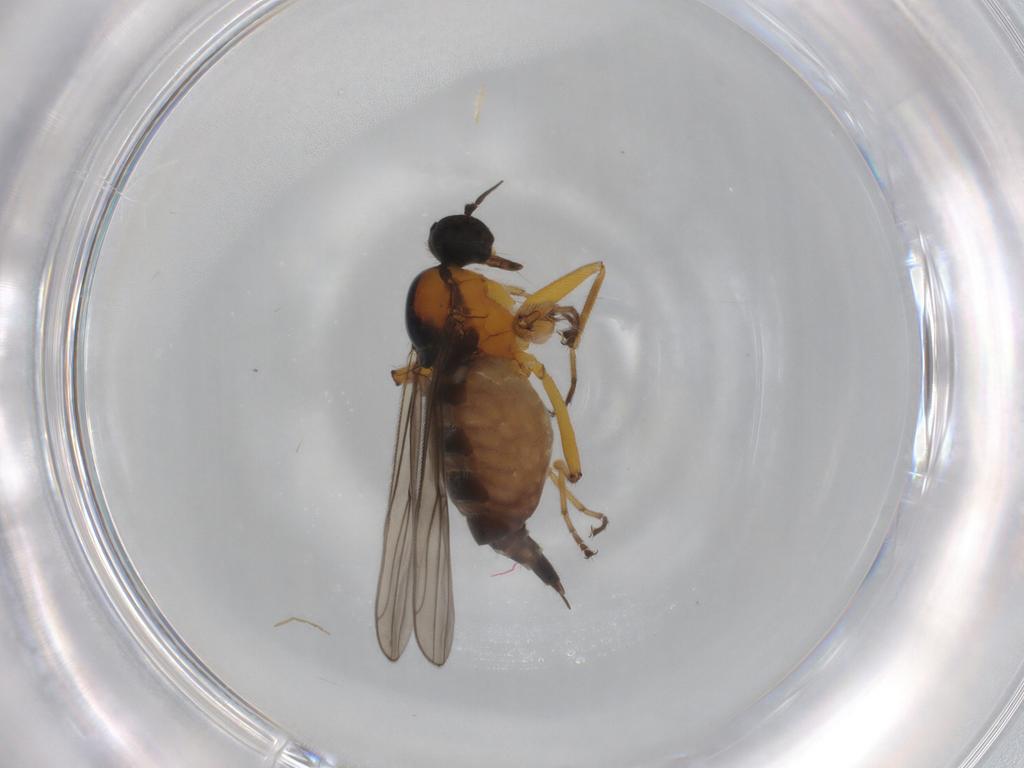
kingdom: Animalia
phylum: Arthropoda
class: Insecta
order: Diptera
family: Hybotidae
